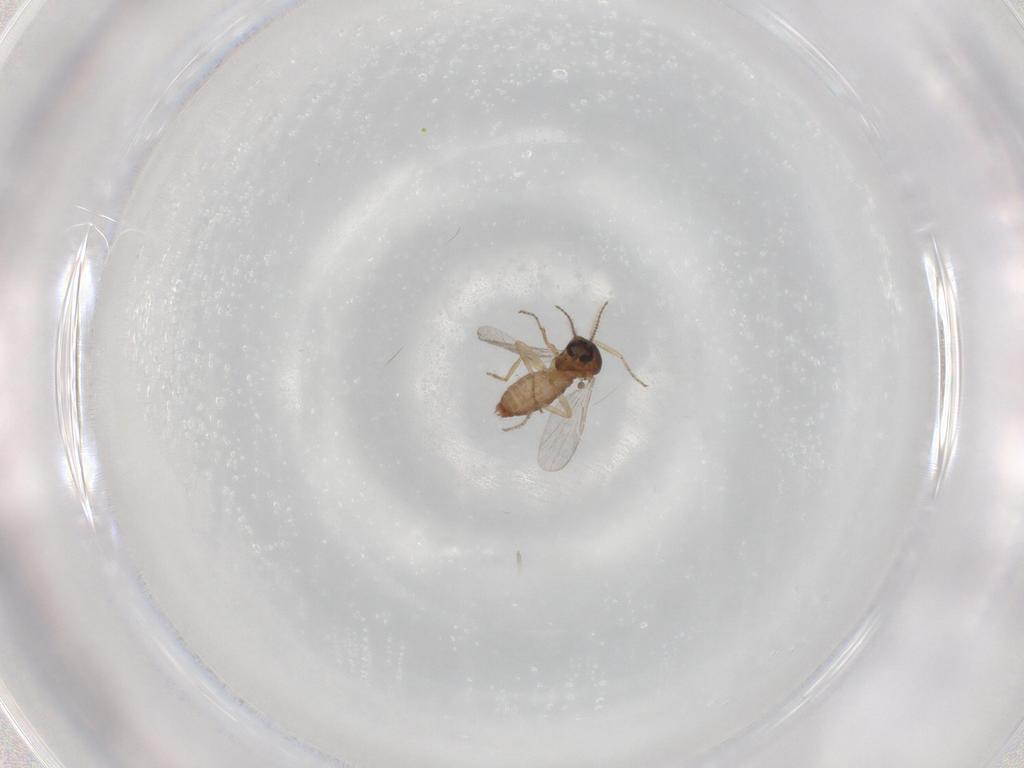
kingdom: Animalia
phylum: Arthropoda
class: Insecta
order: Diptera
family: Ceratopogonidae
